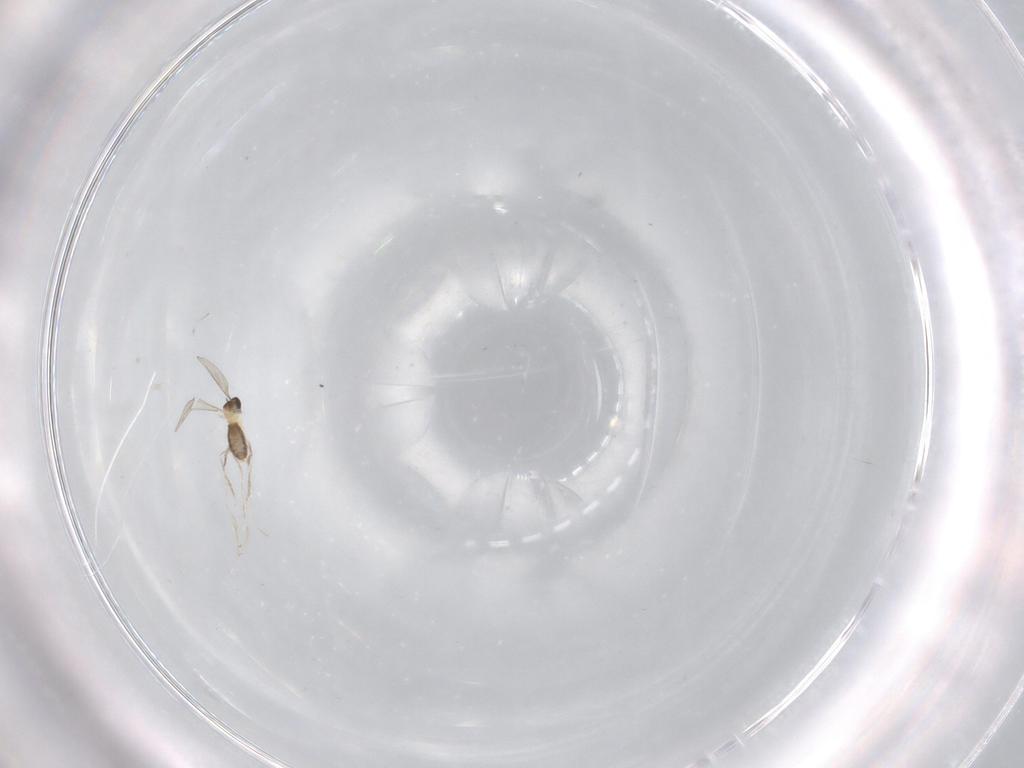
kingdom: Animalia
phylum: Arthropoda
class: Insecta
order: Diptera
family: Cecidomyiidae
